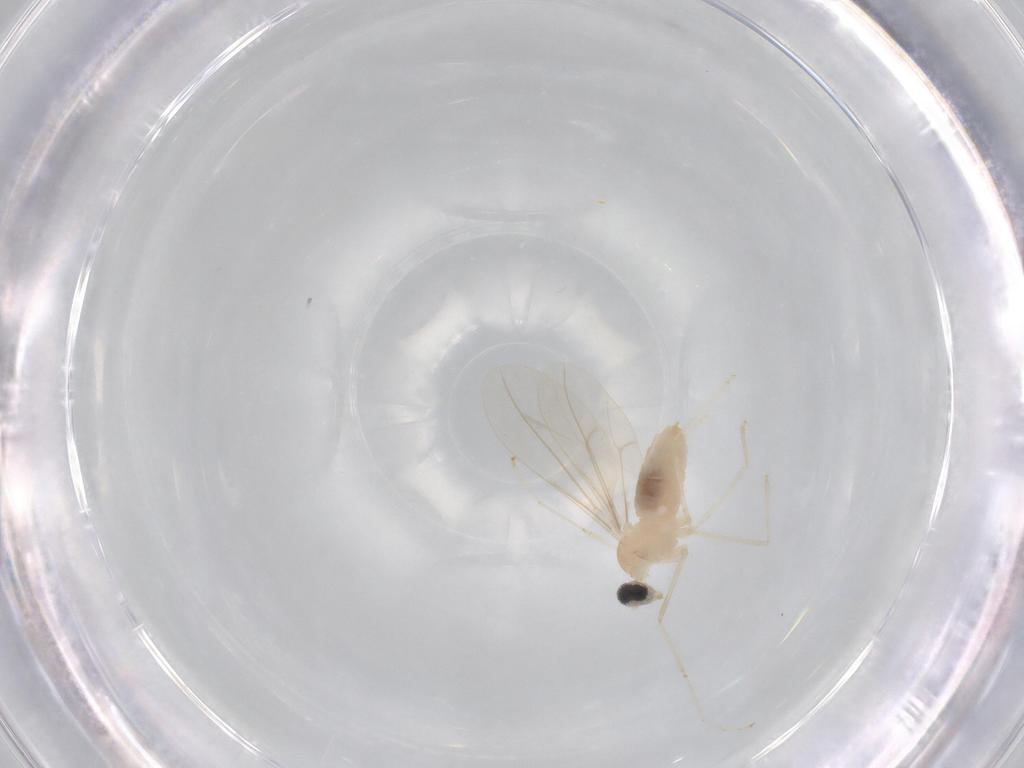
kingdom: Animalia
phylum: Arthropoda
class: Insecta
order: Diptera
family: Cecidomyiidae
